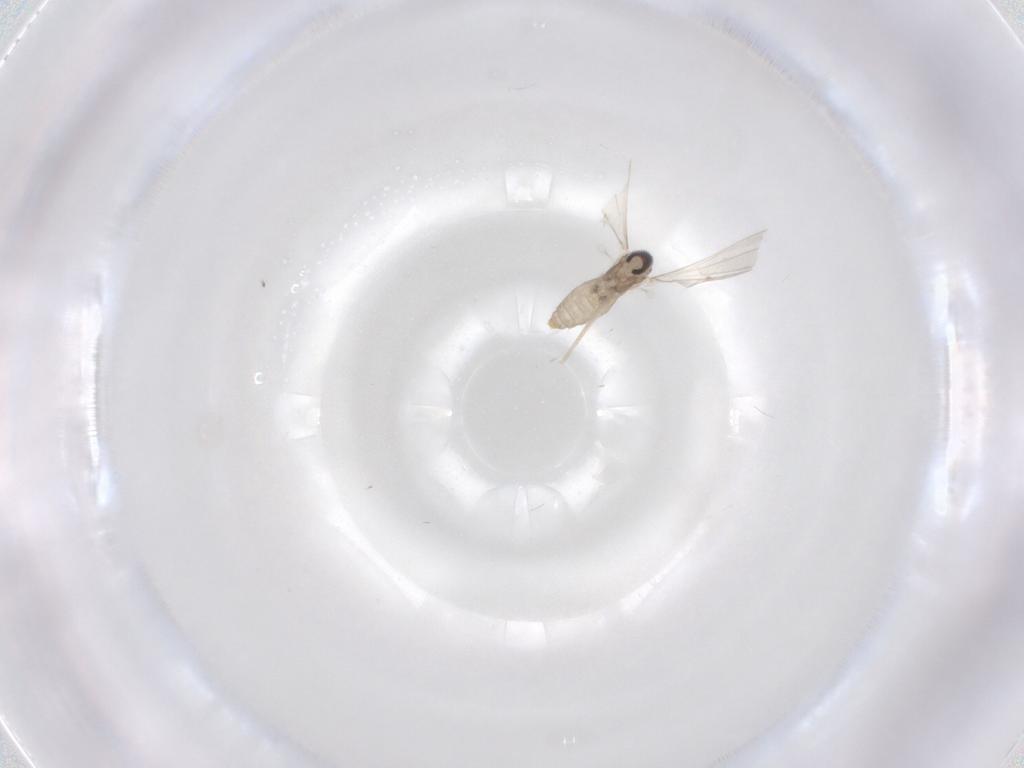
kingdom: Animalia
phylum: Arthropoda
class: Insecta
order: Diptera
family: Cecidomyiidae
